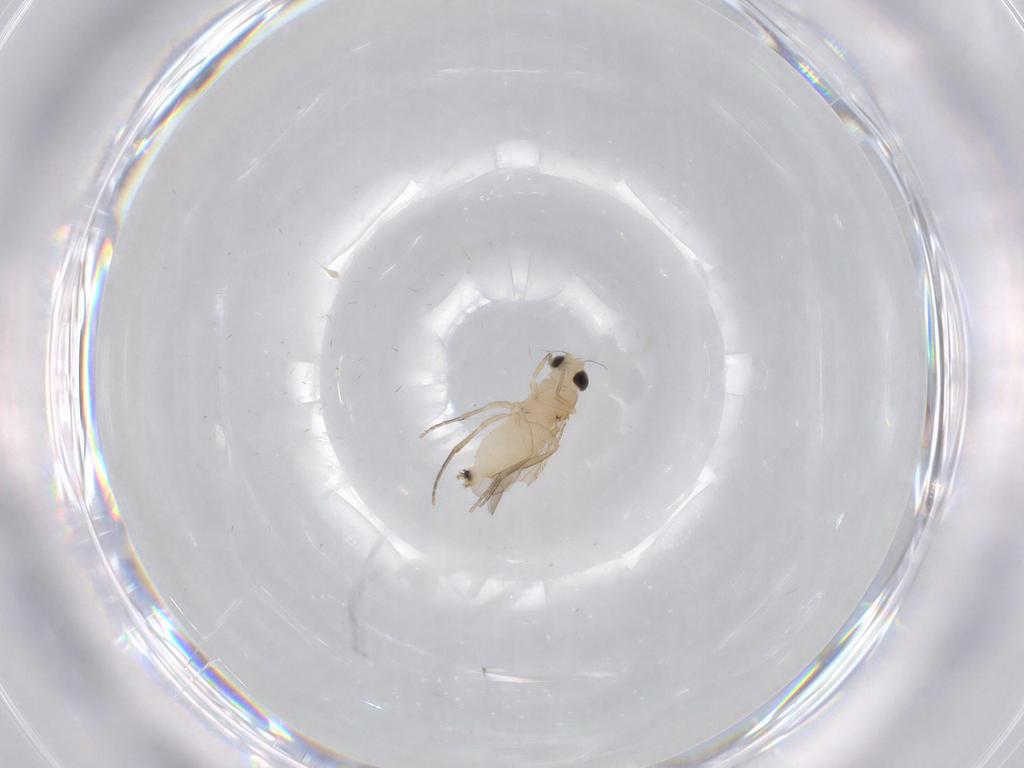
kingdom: Animalia
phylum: Arthropoda
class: Insecta
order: Diptera
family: Phoridae
